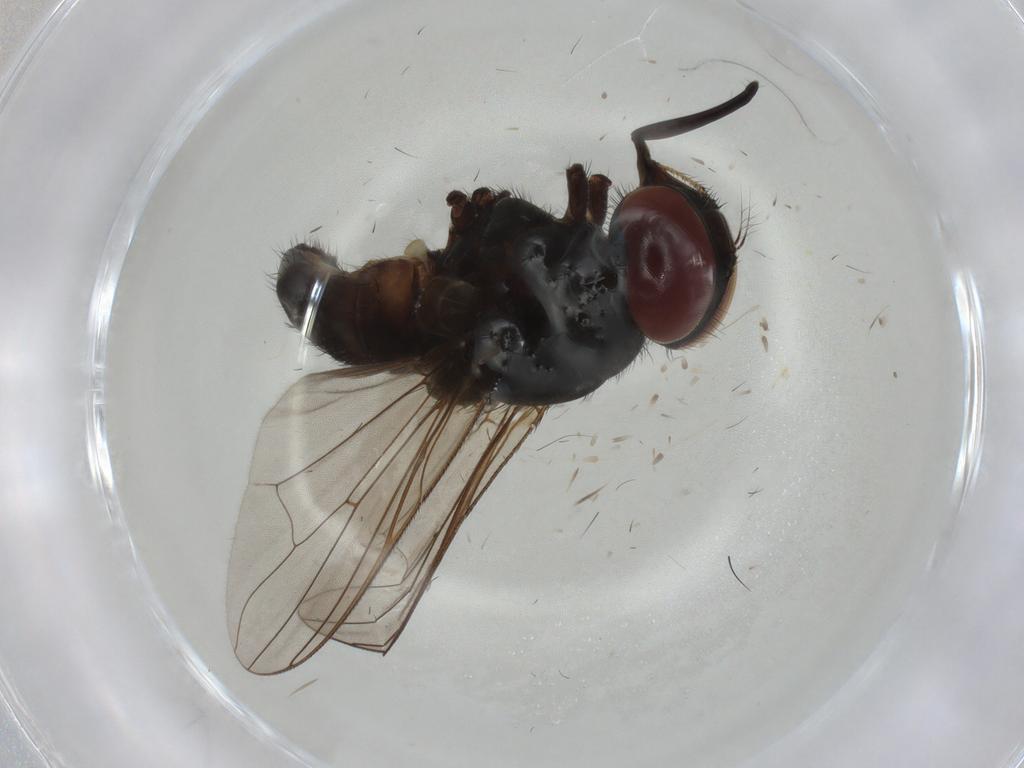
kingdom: Animalia
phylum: Arthropoda
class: Insecta
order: Diptera
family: Muscidae
